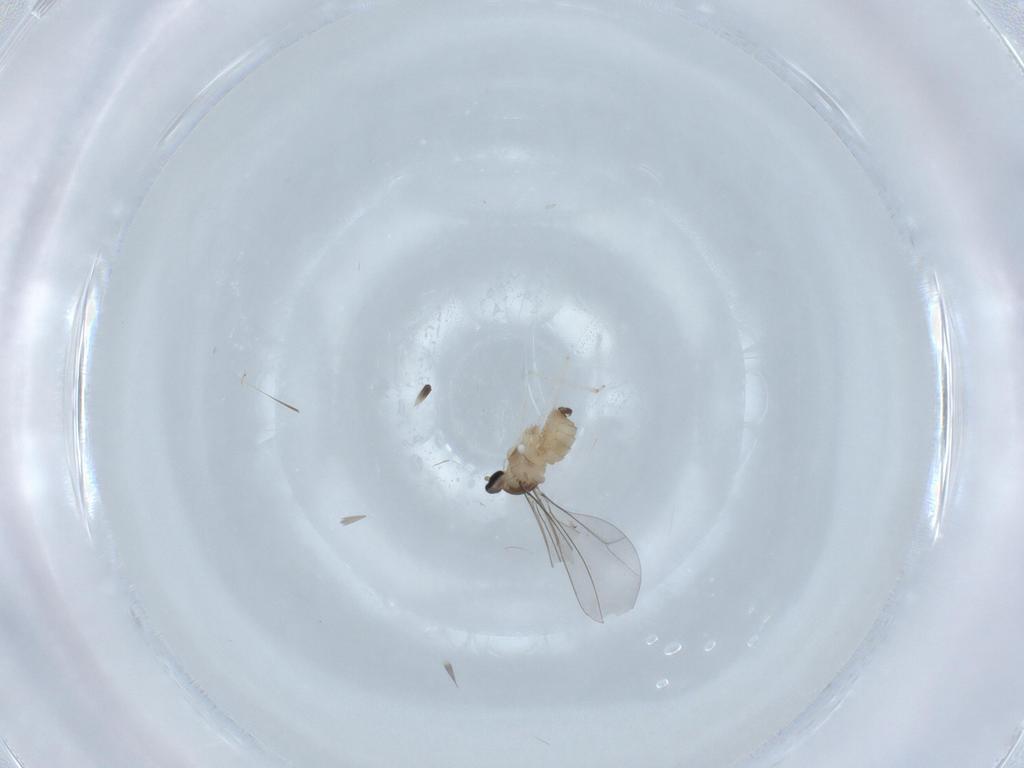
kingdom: Animalia
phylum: Arthropoda
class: Insecta
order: Diptera
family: Cecidomyiidae
